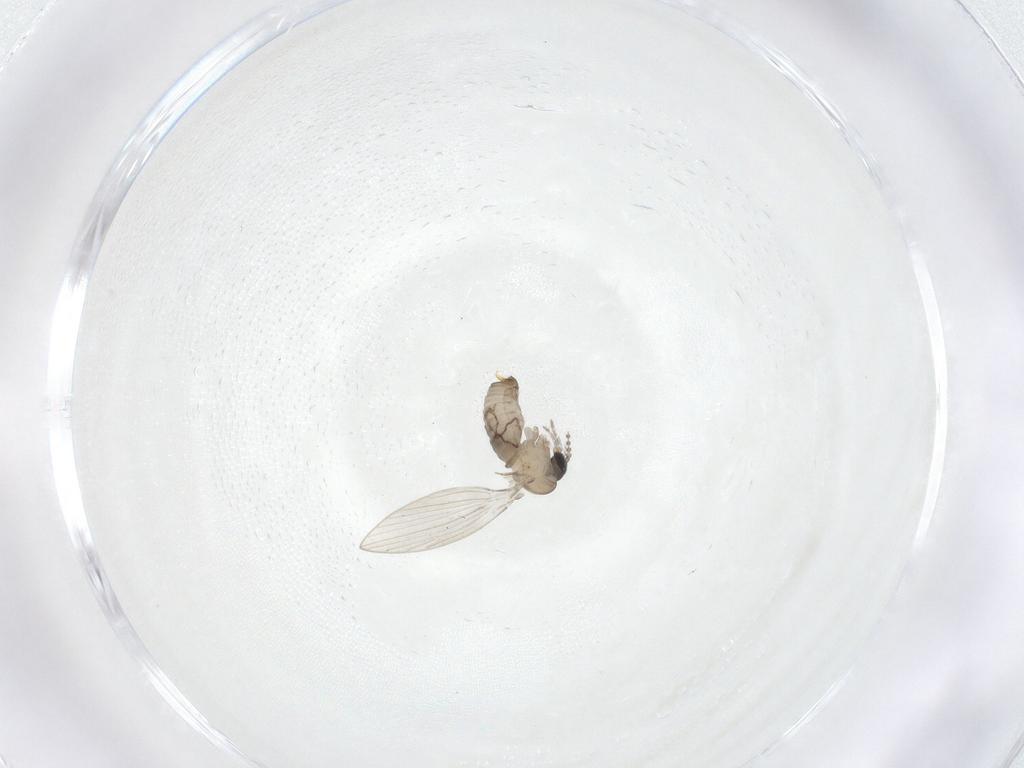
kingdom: Animalia
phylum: Arthropoda
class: Insecta
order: Diptera
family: Psychodidae
